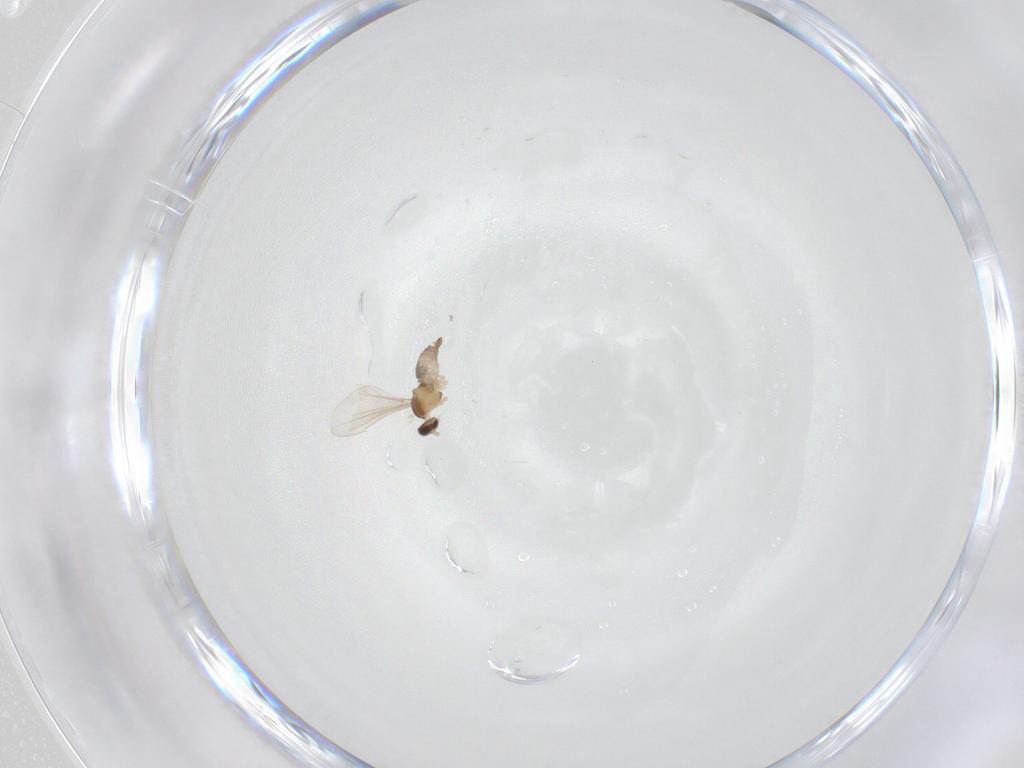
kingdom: Animalia
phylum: Arthropoda
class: Insecta
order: Diptera
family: Cecidomyiidae
